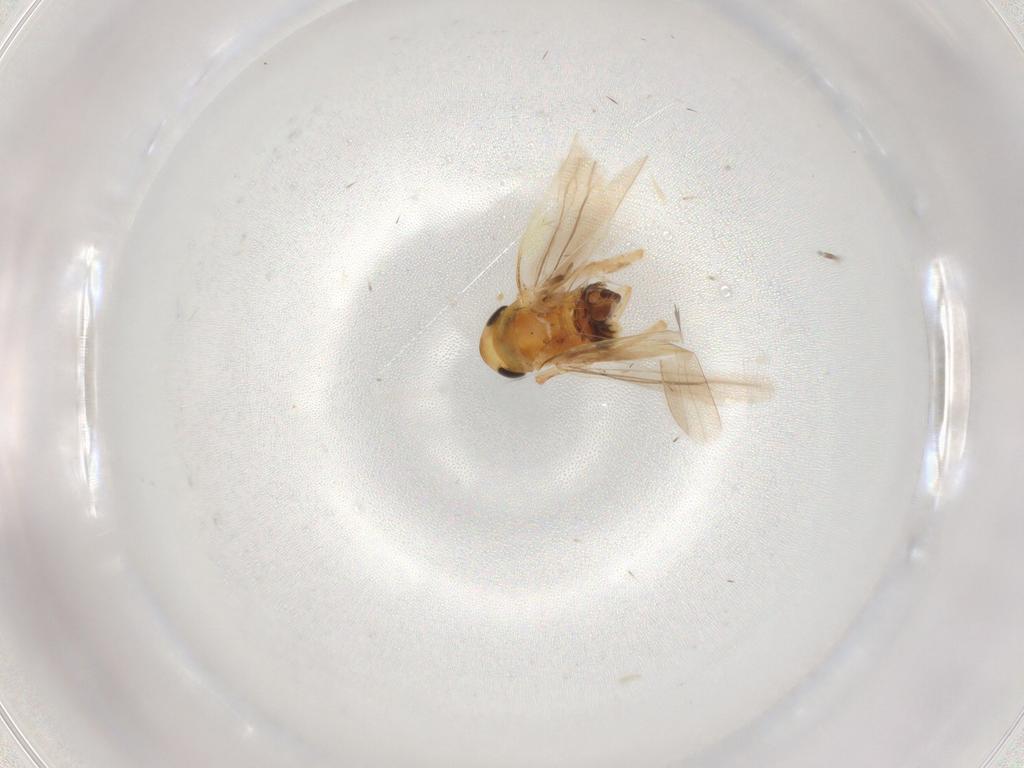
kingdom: Animalia
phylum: Arthropoda
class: Insecta
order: Hemiptera
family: Cicadellidae
